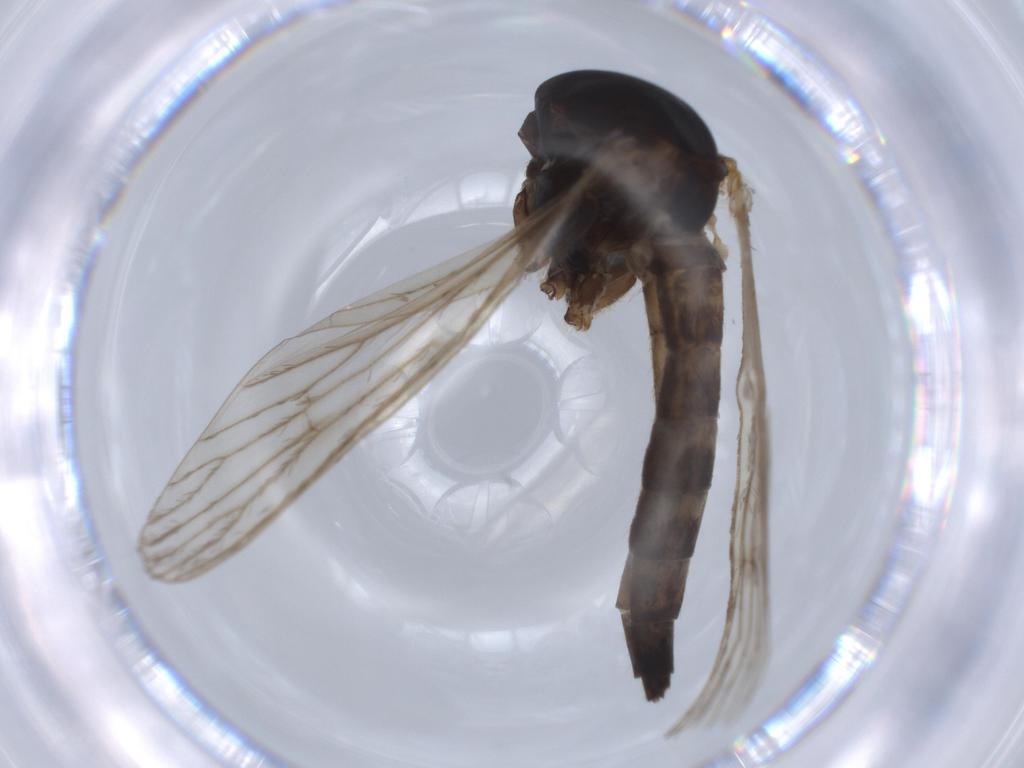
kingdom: Animalia
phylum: Arthropoda
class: Insecta
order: Diptera
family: Fannia
